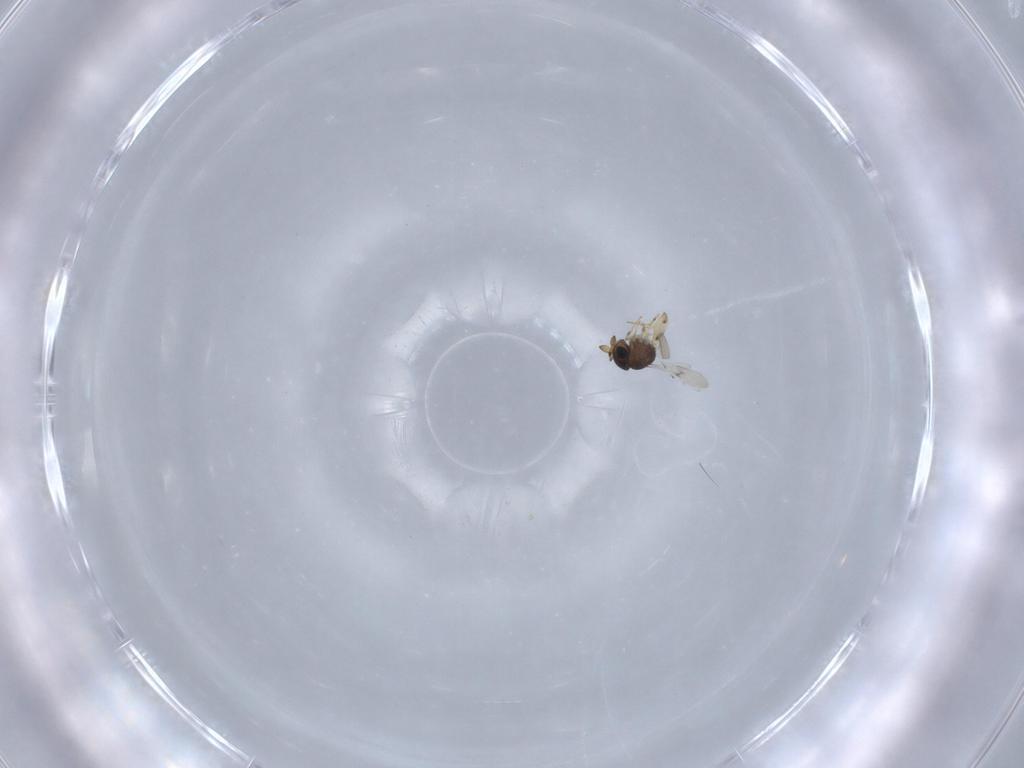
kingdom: Animalia
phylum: Arthropoda
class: Insecta
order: Hymenoptera
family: Scelionidae
